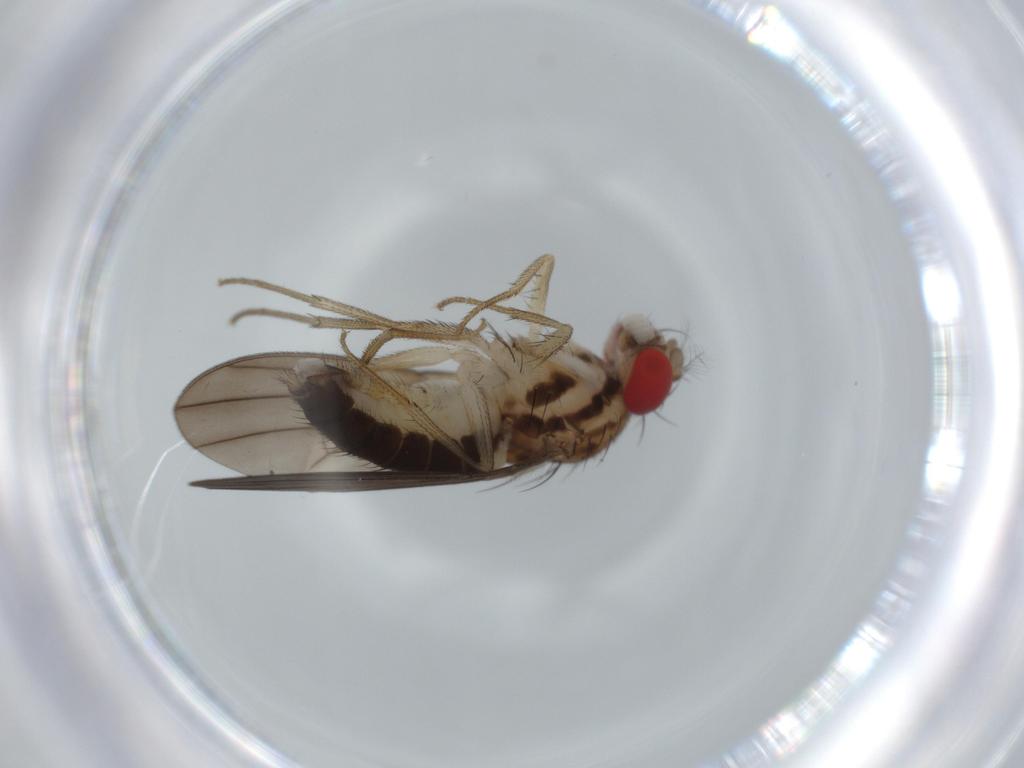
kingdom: Animalia
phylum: Arthropoda
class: Insecta
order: Diptera
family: Drosophilidae
